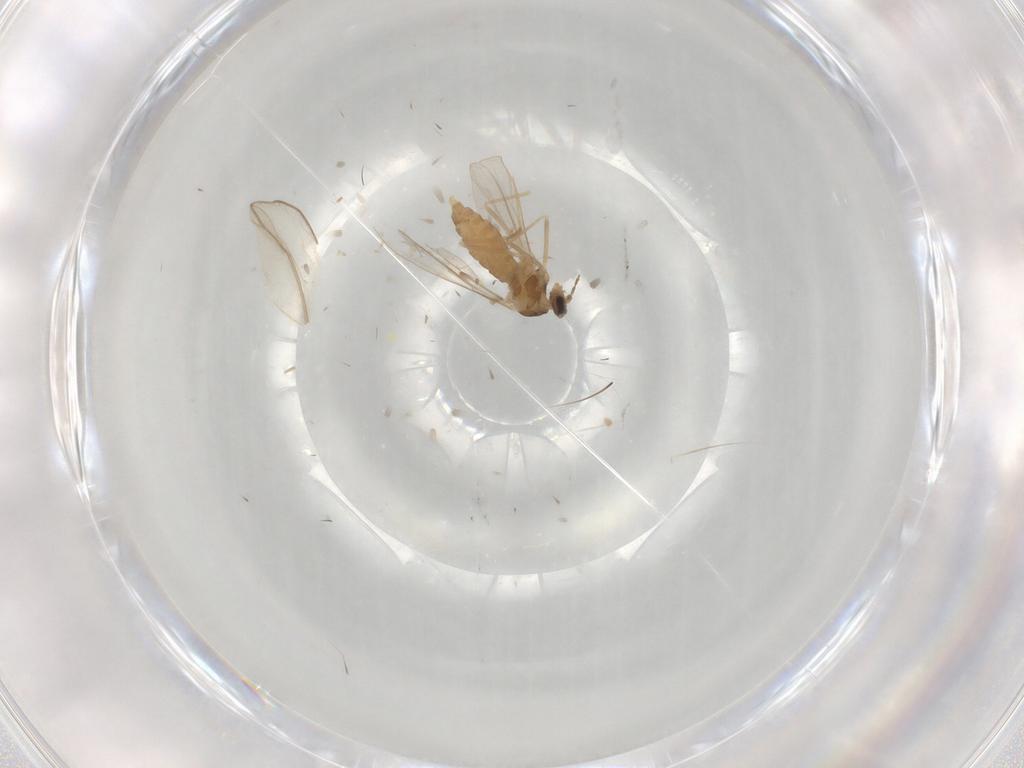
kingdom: Animalia
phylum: Arthropoda
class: Insecta
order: Diptera
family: Cecidomyiidae
